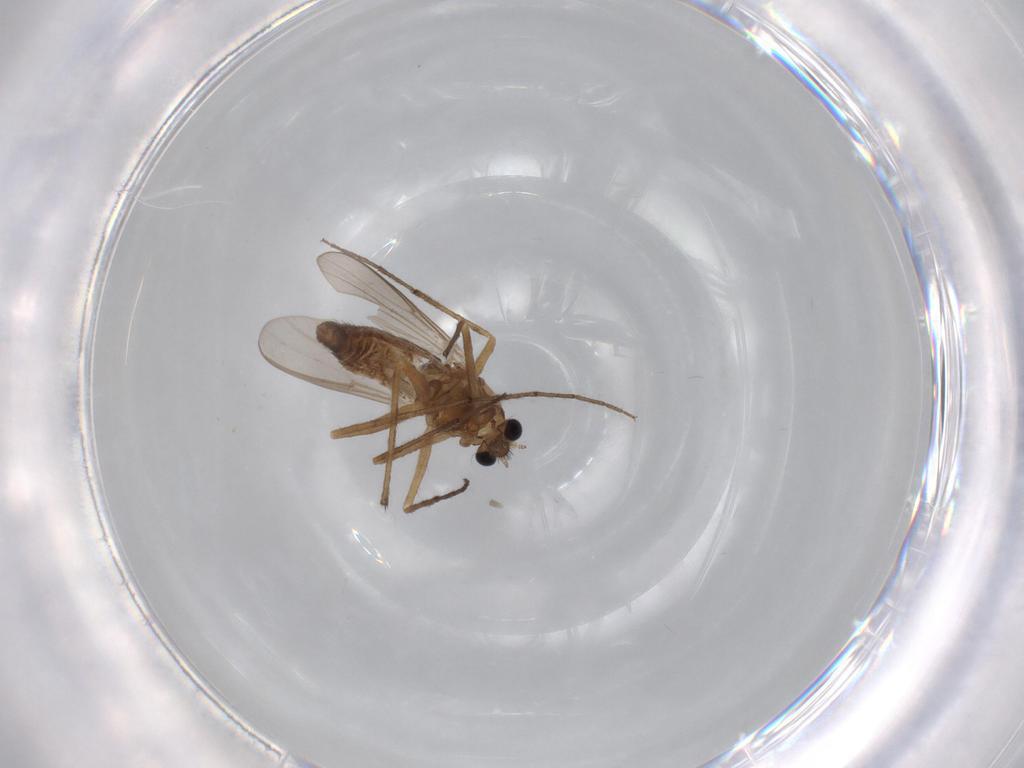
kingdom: Animalia
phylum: Arthropoda
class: Insecta
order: Diptera
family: Chironomidae
